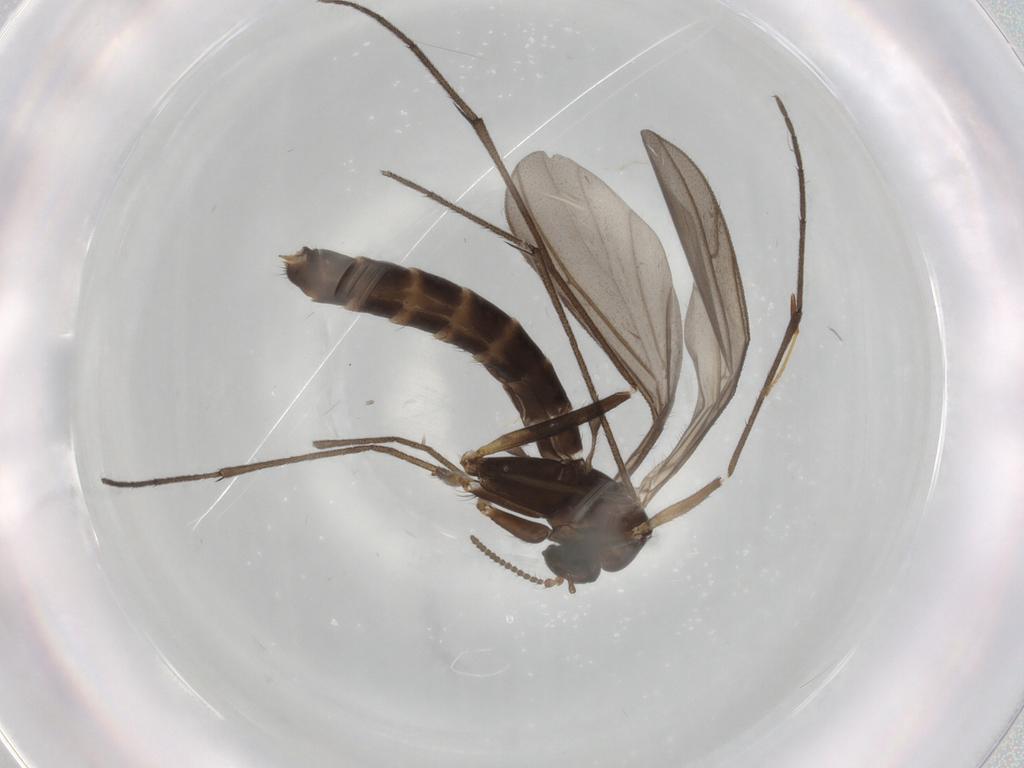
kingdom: Animalia
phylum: Arthropoda
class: Insecta
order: Diptera
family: Ditomyiidae
